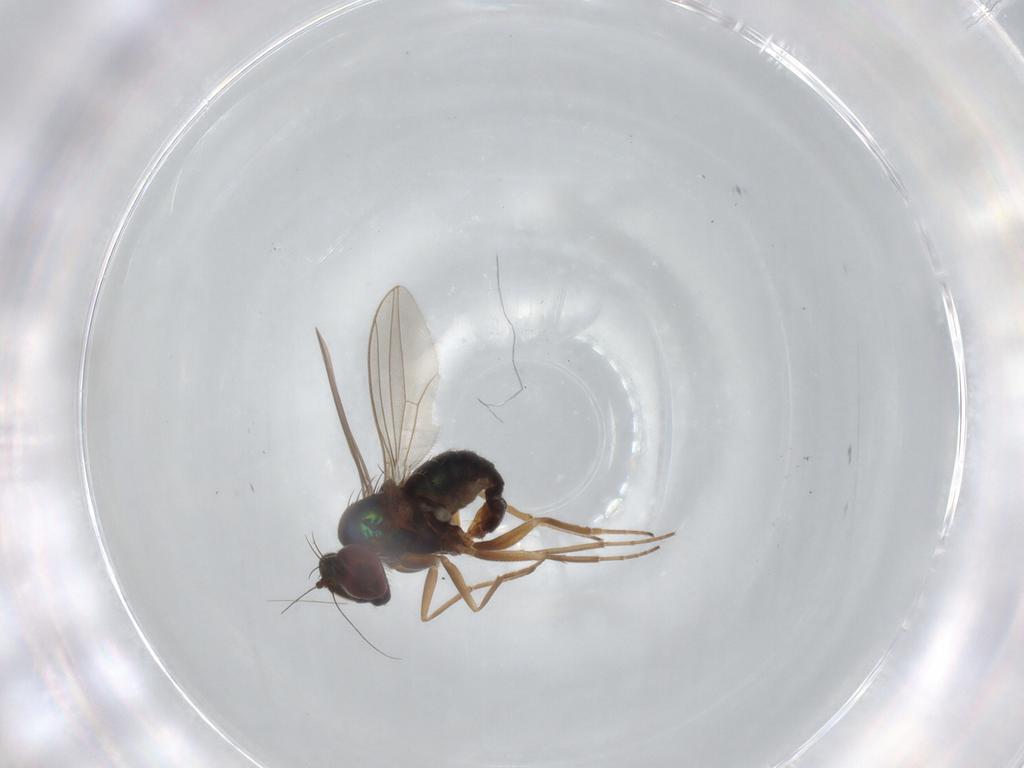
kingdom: Animalia
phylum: Arthropoda
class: Insecta
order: Diptera
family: Dolichopodidae
